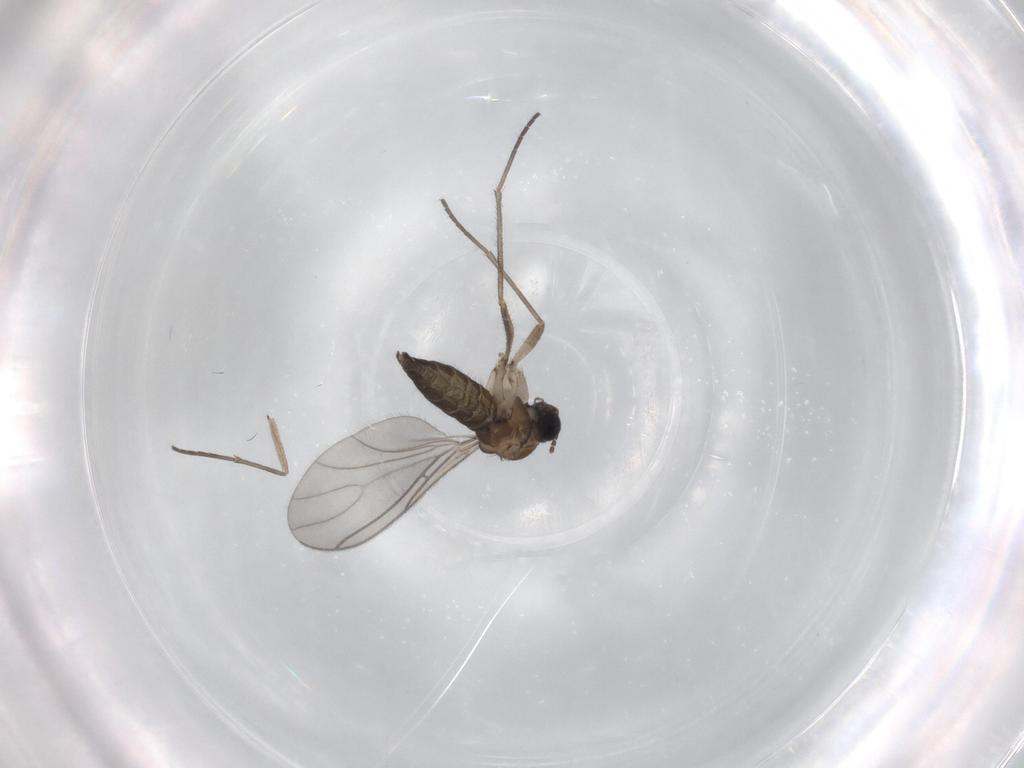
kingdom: Animalia
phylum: Arthropoda
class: Insecta
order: Diptera
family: Sciaridae
